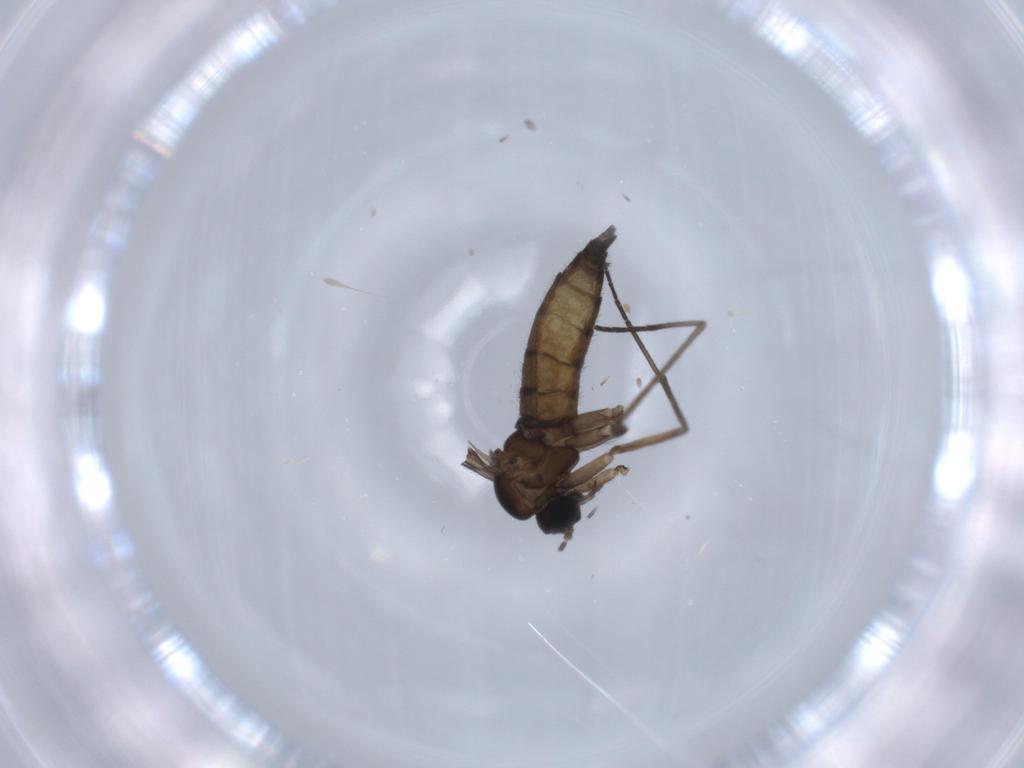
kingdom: Animalia
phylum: Arthropoda
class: Insecta
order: Diptera
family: Sciaridae
